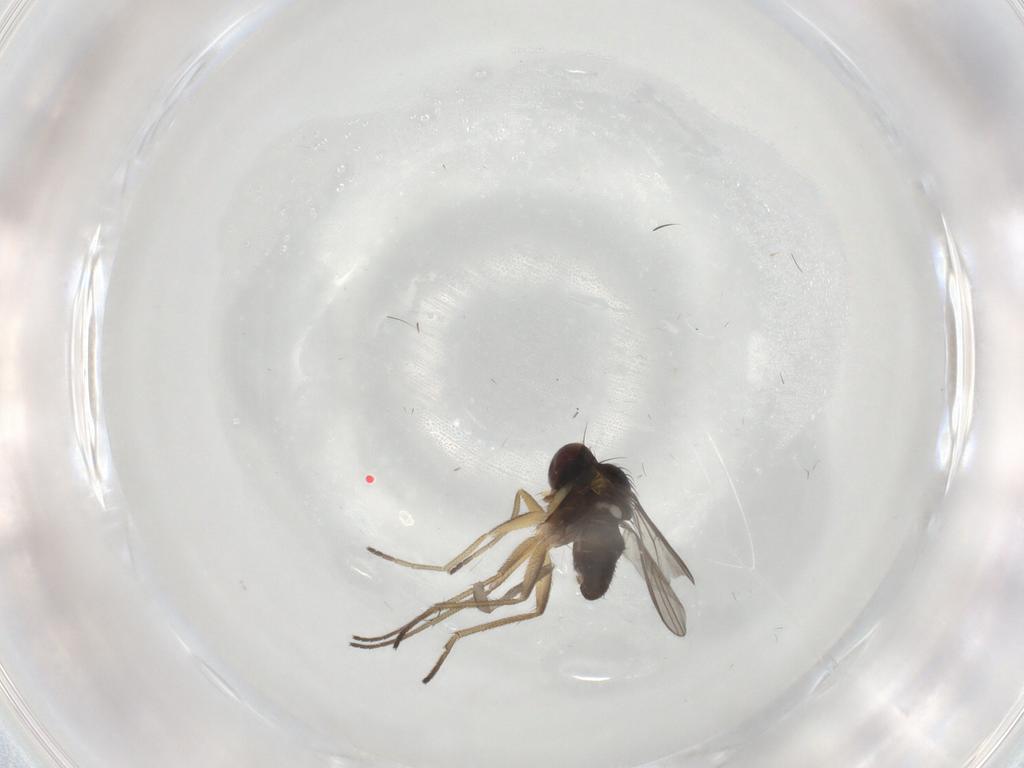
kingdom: Animalia
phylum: Arthropoda
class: Insecta
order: Diptera
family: Dolichopodidae
